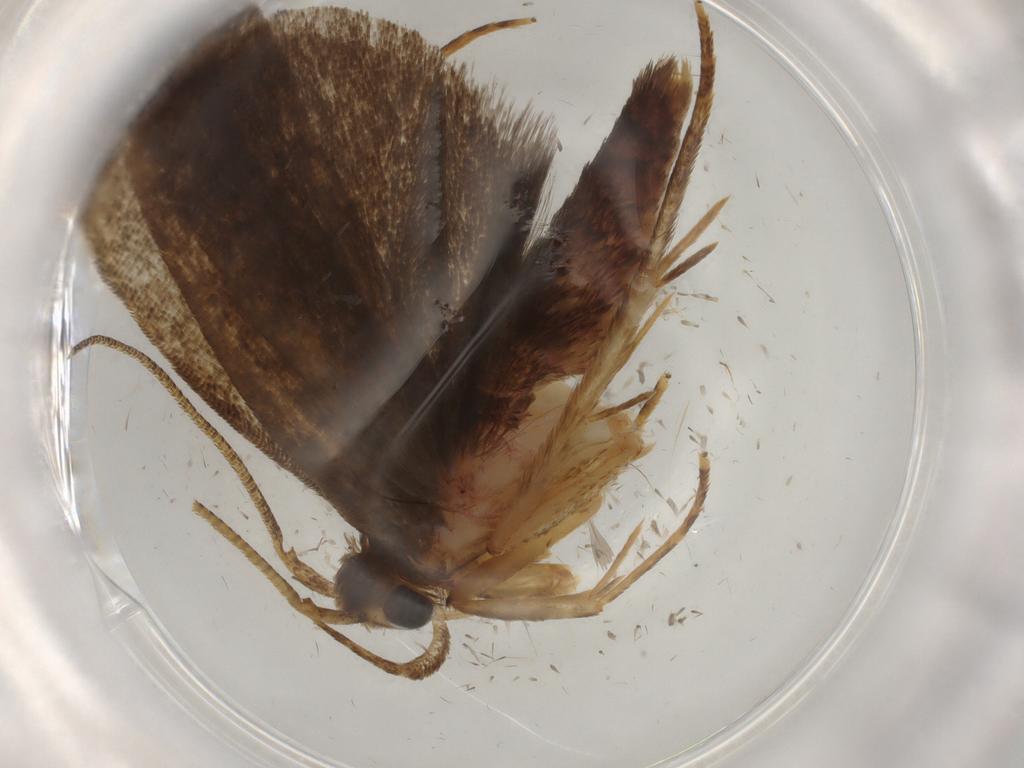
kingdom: Animalia
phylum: Arthropoda
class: Insecta
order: Lepidoptera
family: Autostichidae
